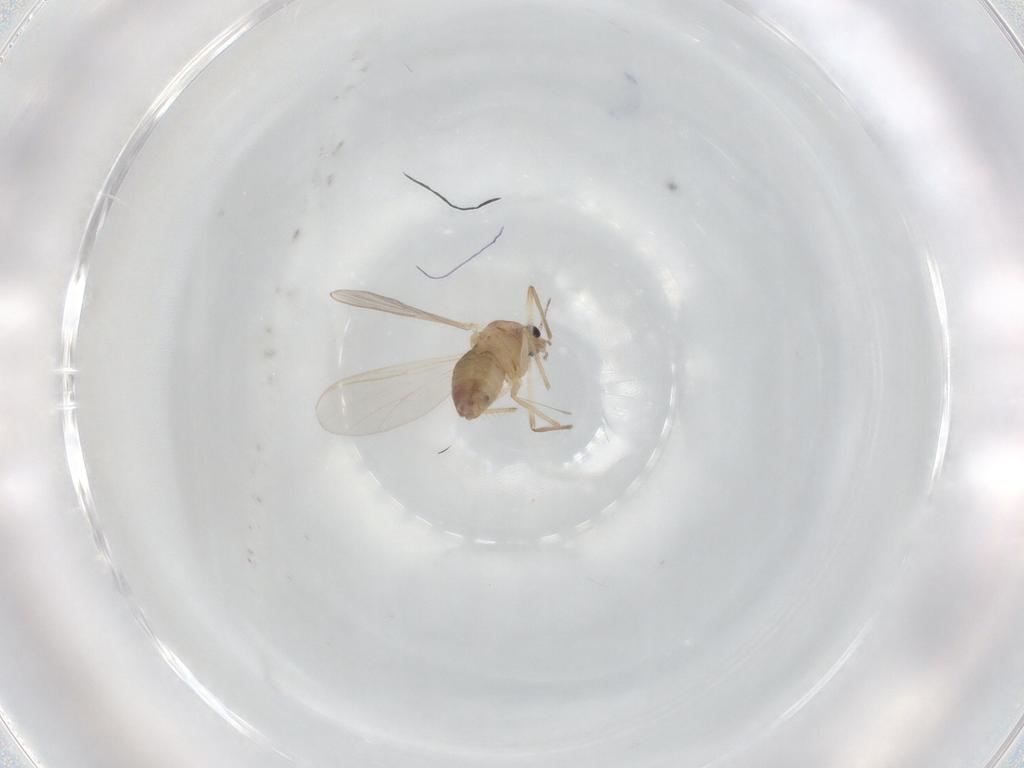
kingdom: Animalia
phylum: Arthropoda
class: Insecta
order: Diptera
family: Chironomidae
